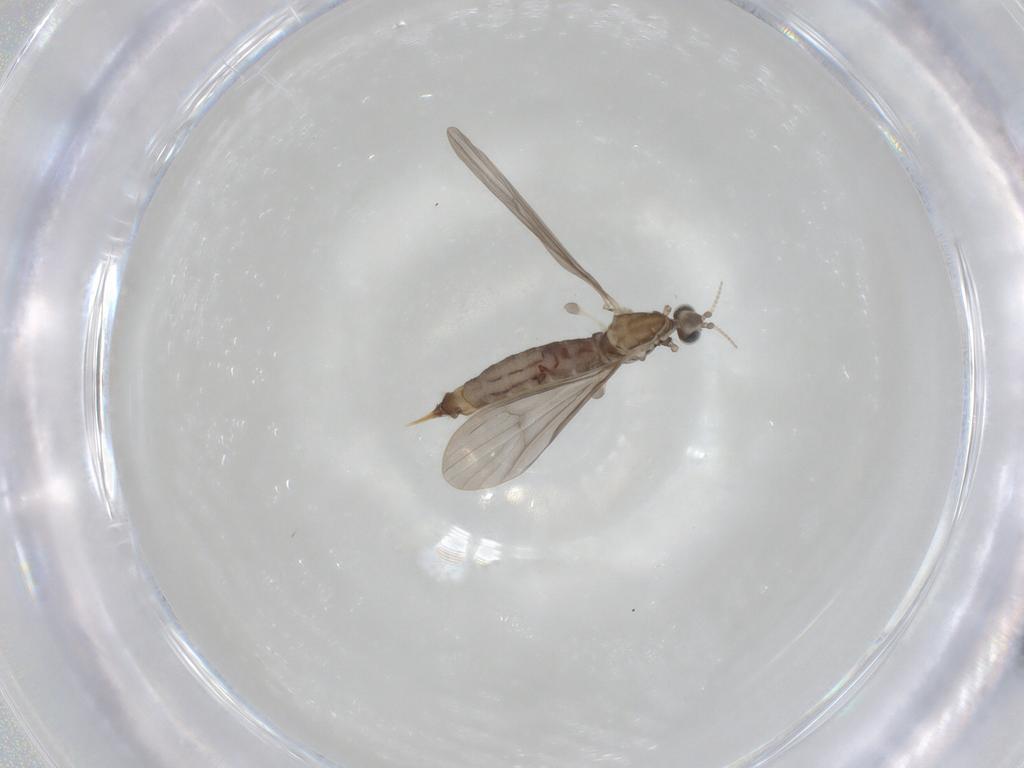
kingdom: Animalia
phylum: Arthropoda
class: Insecta
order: Diptera
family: Limoniidae
